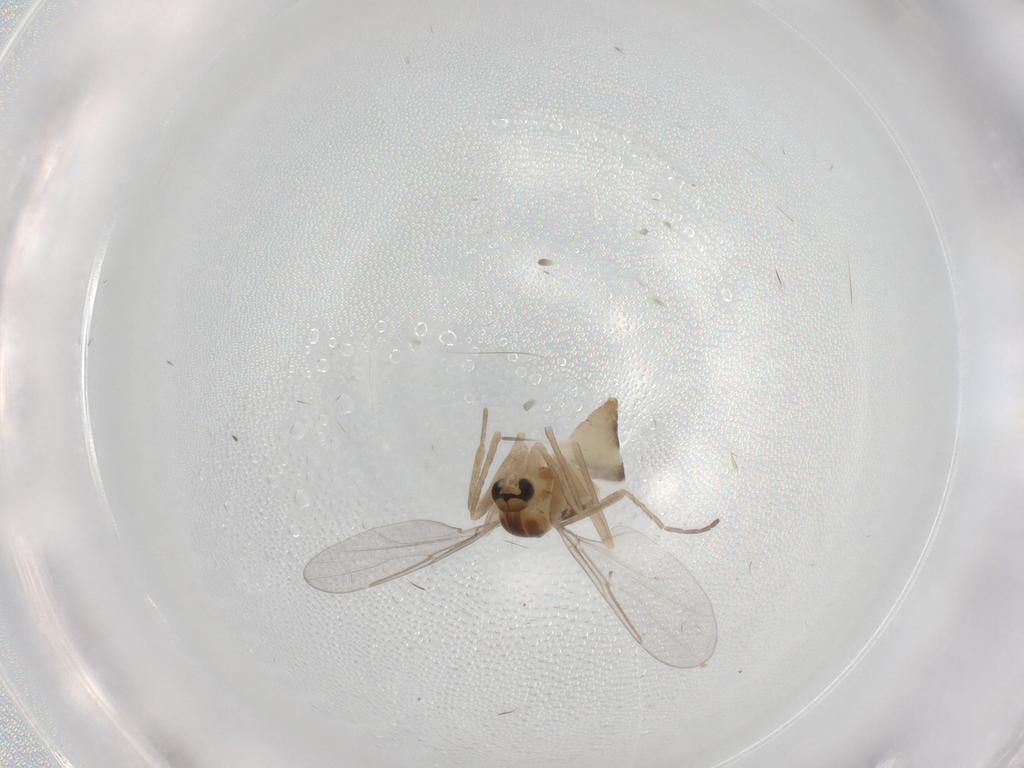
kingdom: Animalia
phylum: Arthropoda
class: Insecta
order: Diptera
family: Cecidomyiidae
